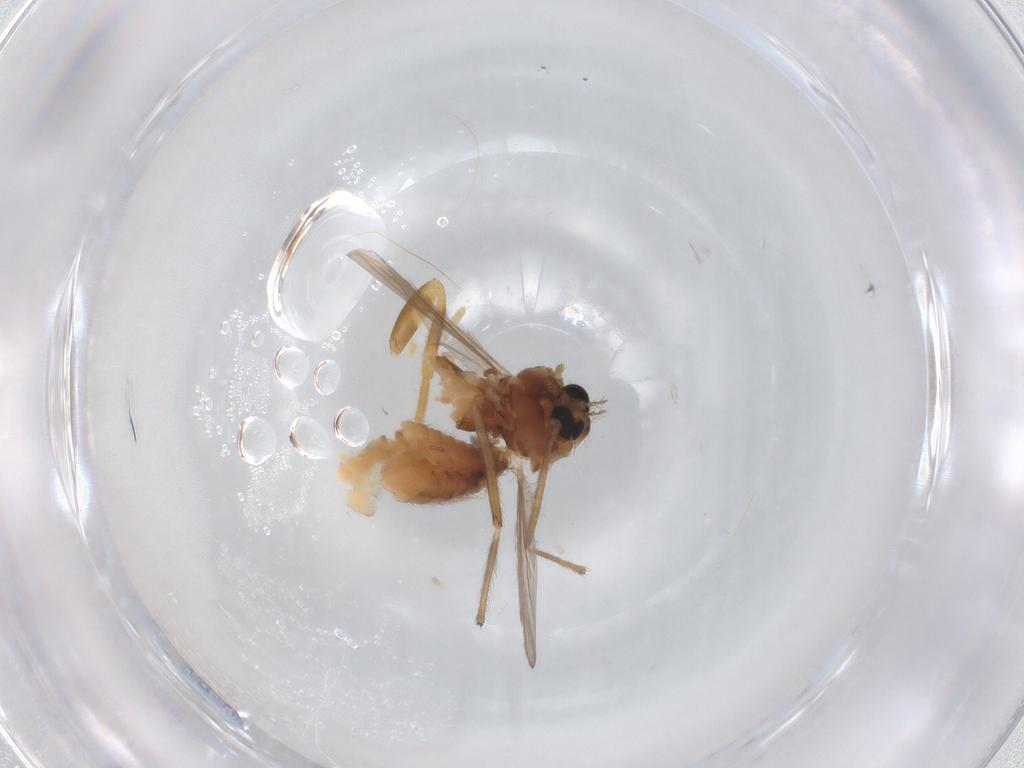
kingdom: Animalia
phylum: Arthropoda
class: Insecta
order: Diptera
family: Chironomidae
